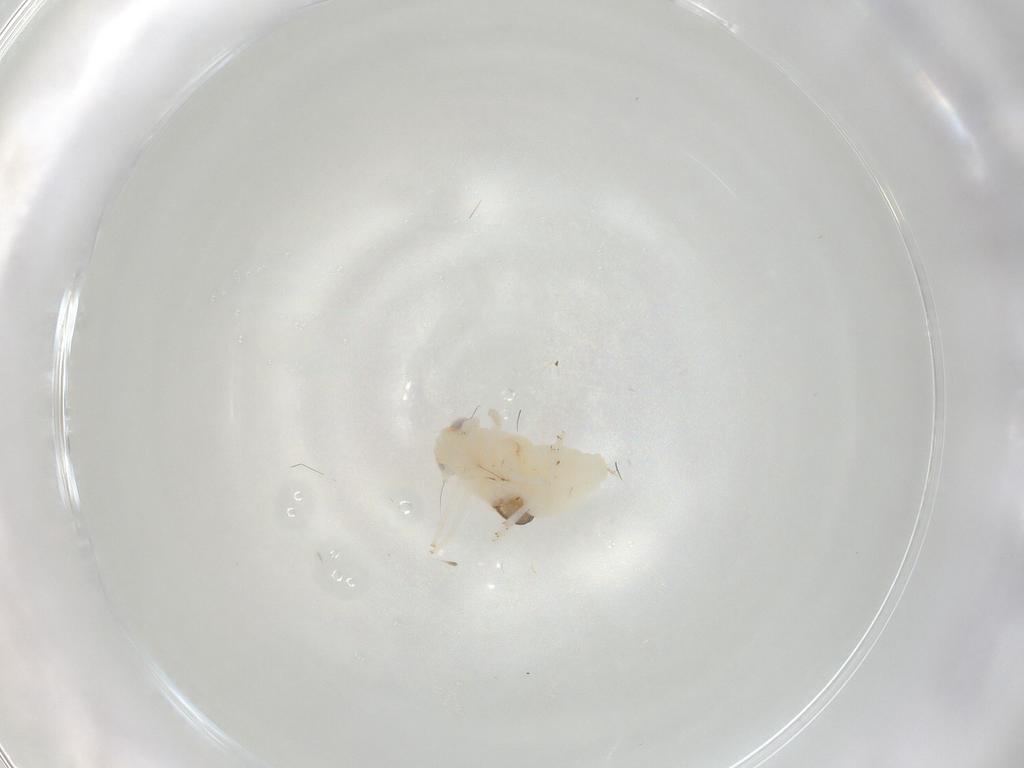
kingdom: Animalia
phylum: Arthropoda
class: Insecta
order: Hemiptera
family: Nogodinidae
